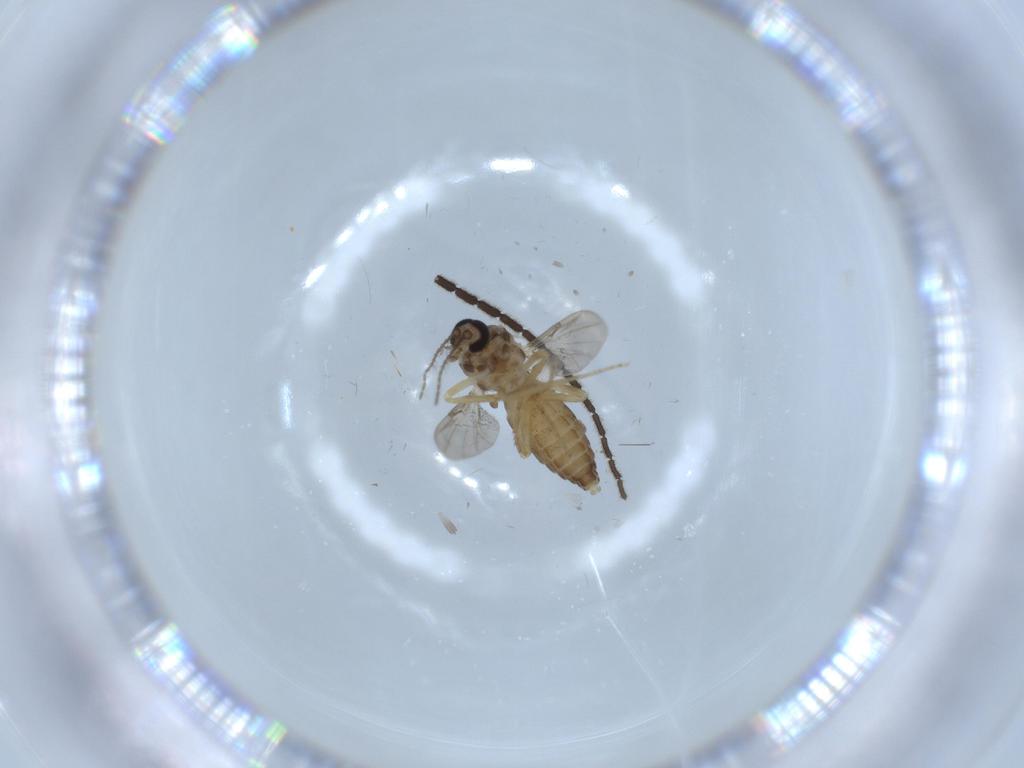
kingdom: Animalia
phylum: Arthropoda
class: Insecta
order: Diptera
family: Ceratopogonidae
